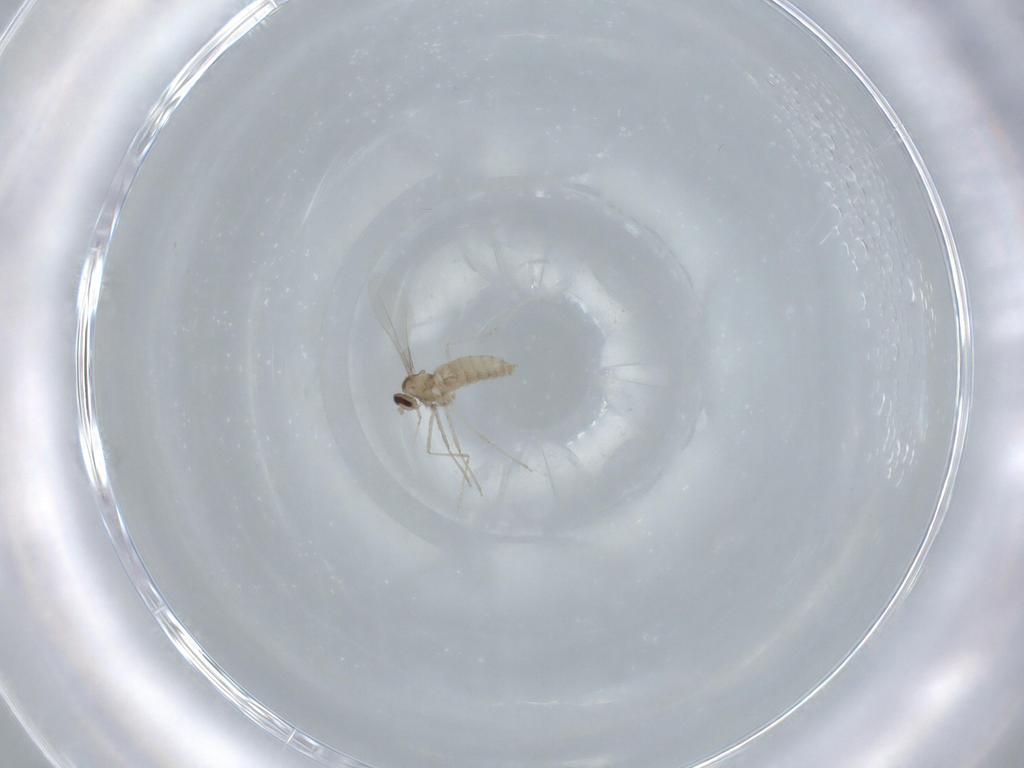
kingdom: Animalia
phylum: Arthropoda
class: Insecta
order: Diptera
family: Cecidomyiidae
